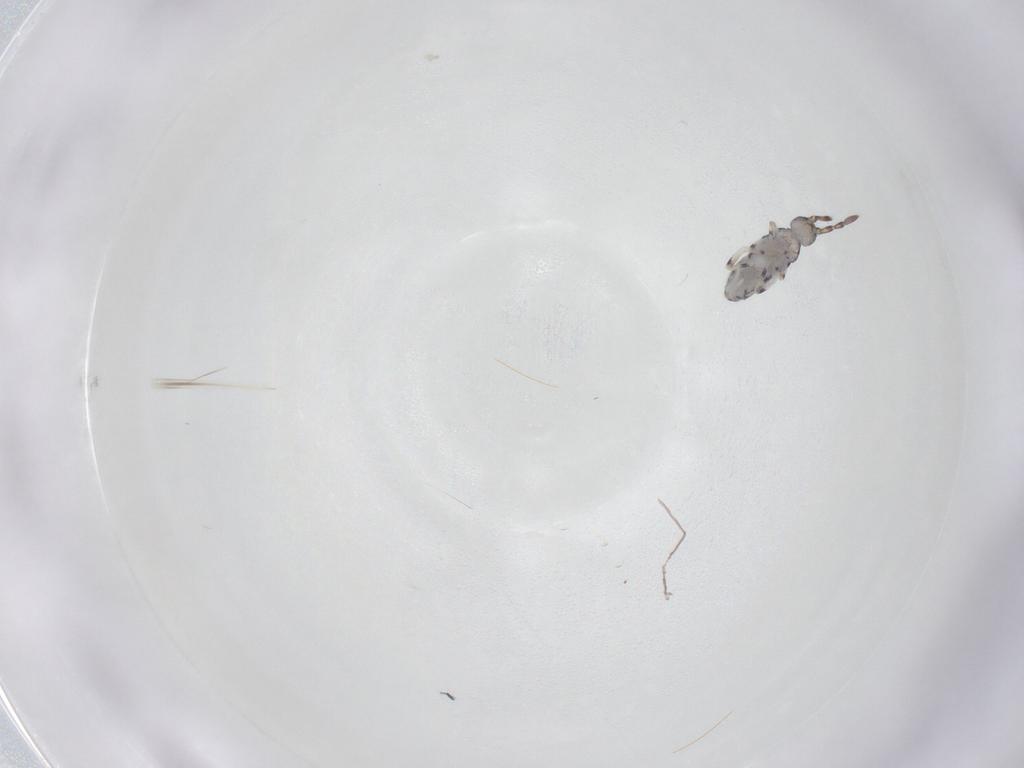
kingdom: Animalia
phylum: Arthropoda
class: Collembola
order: Entomobryomorpha
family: Entomobryidae
